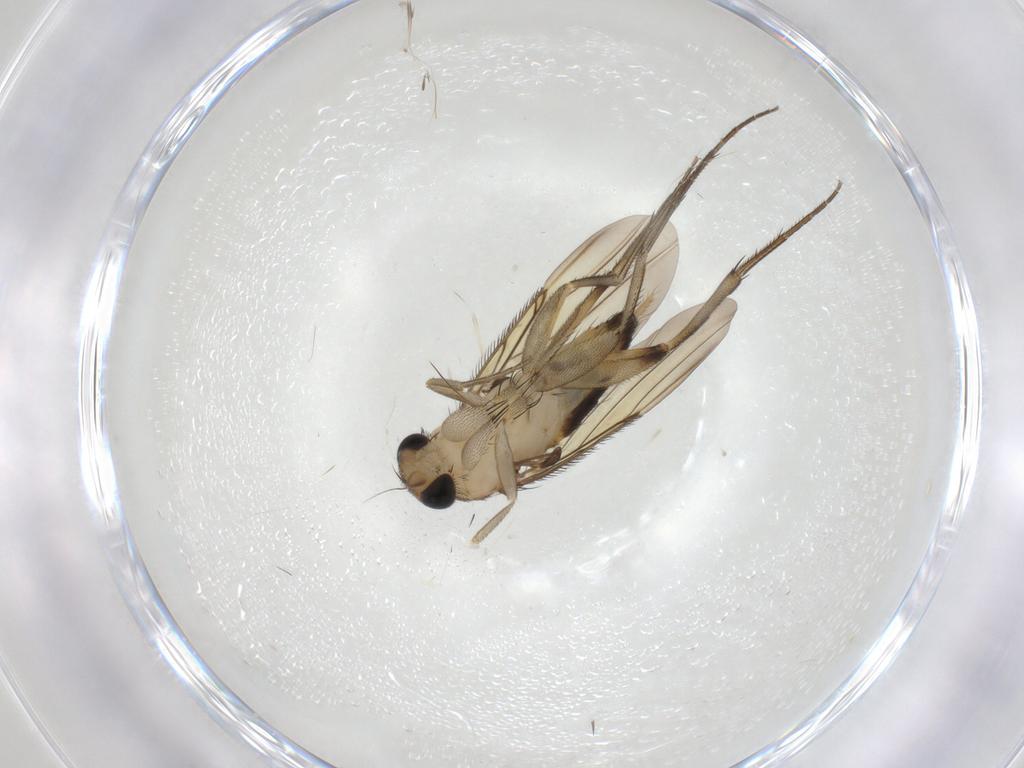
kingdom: Animalia
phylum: Arthropoda
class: Insecta
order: Diptera
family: Phoridae
